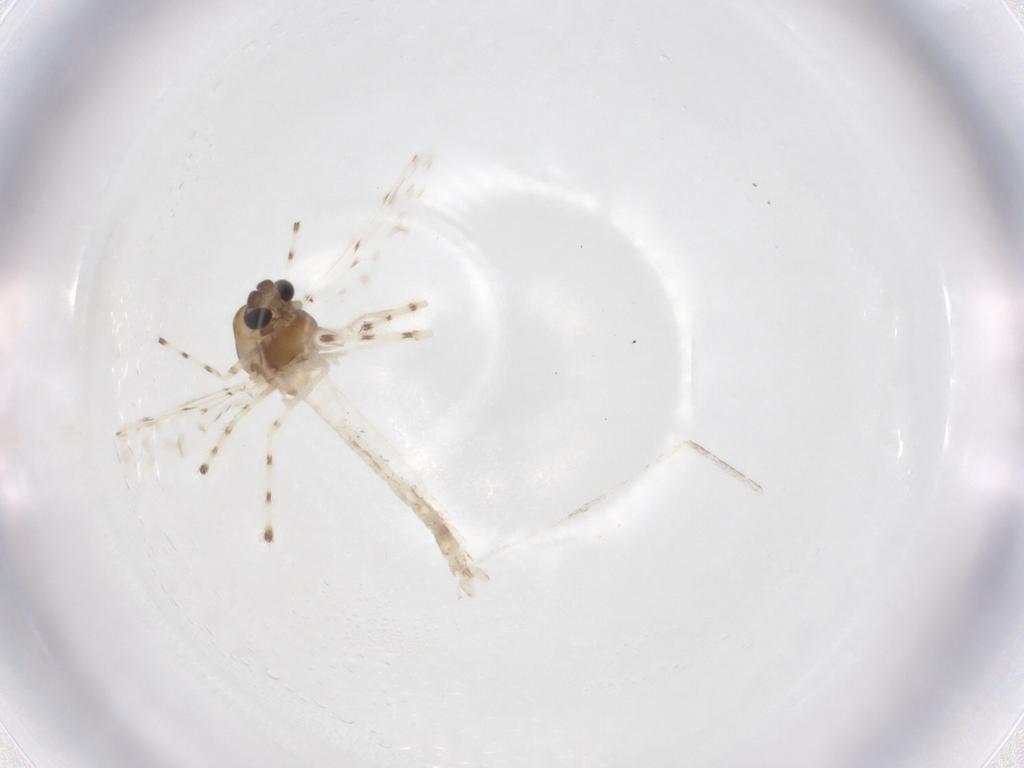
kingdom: Animalia
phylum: Arthropoda
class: Insecta
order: Diptera
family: Chironomidae
